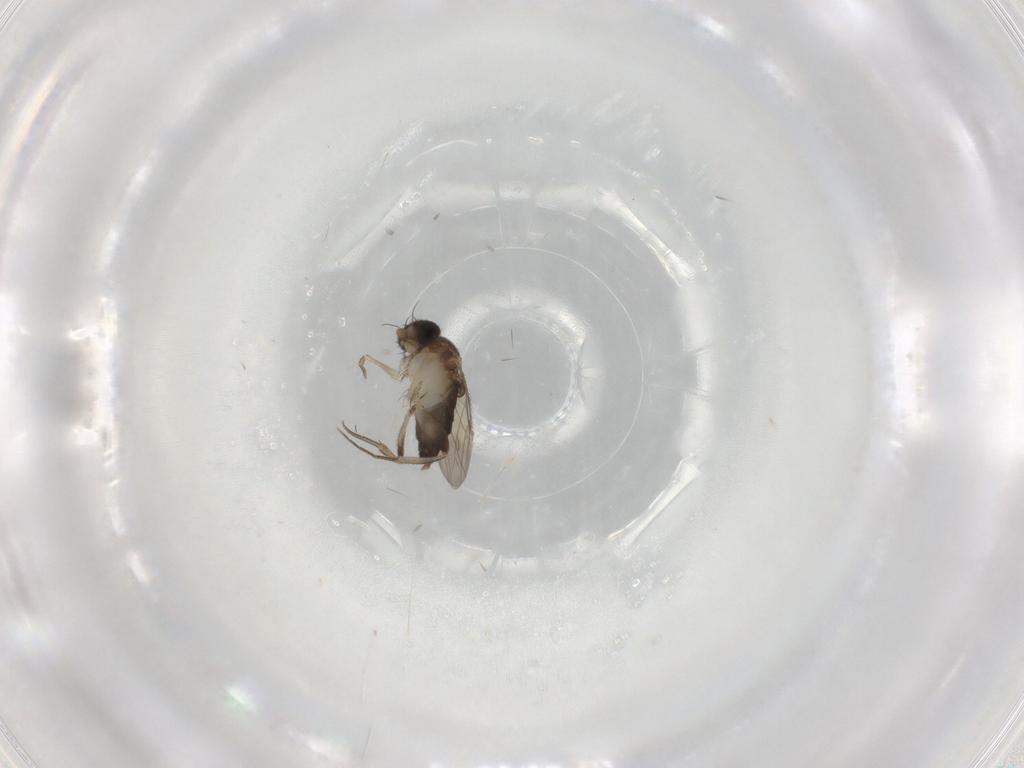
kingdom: Animalia
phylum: Arthropoda
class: Insecta
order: Diptera
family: Phoridae
